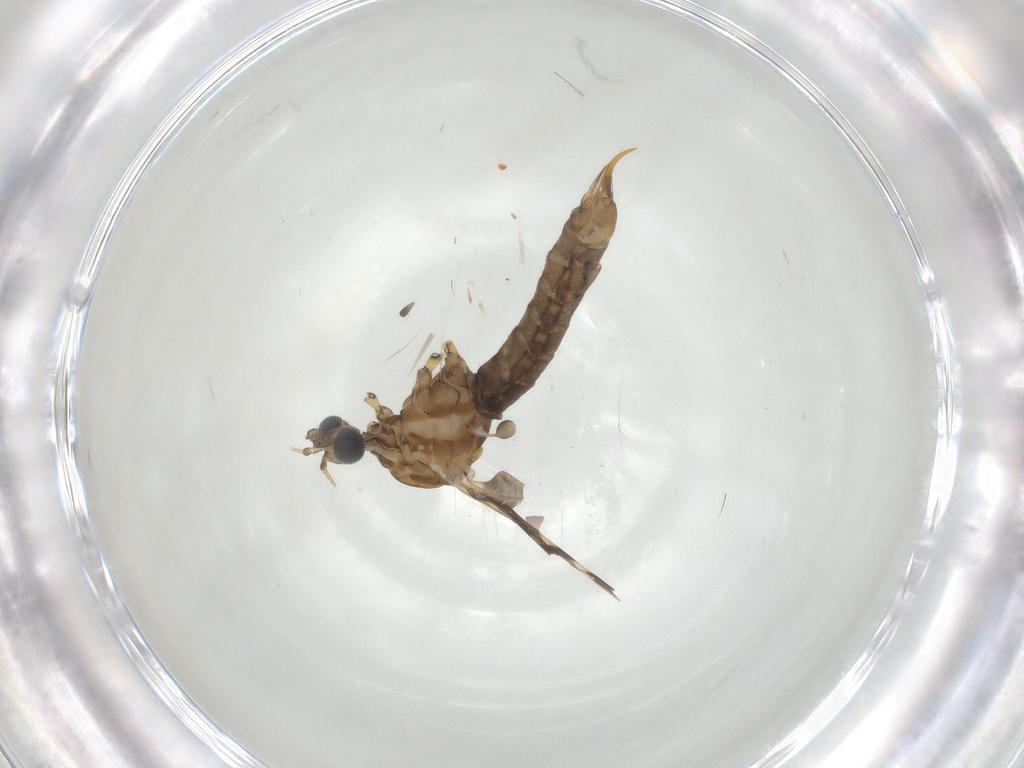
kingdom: Animalia
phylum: Arthropoda
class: Insecta
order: Diptera
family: Limoniidae
